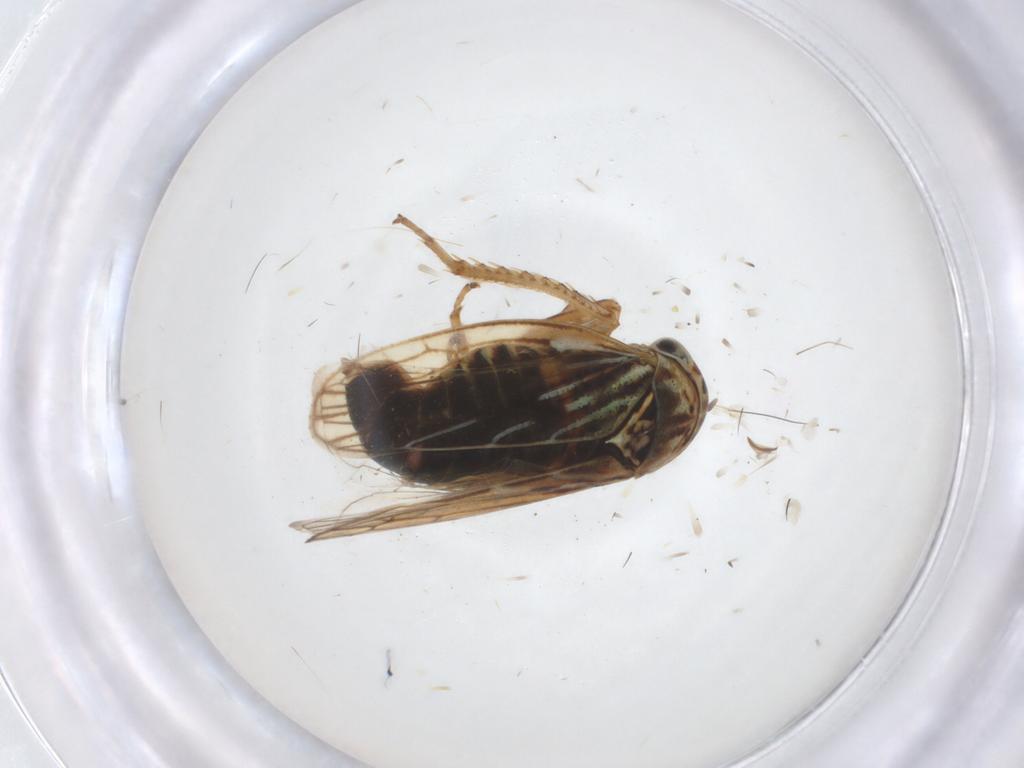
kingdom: Animalia
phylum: Arthropoda
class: Insecta
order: Hemiptera
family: Cicadellidae
